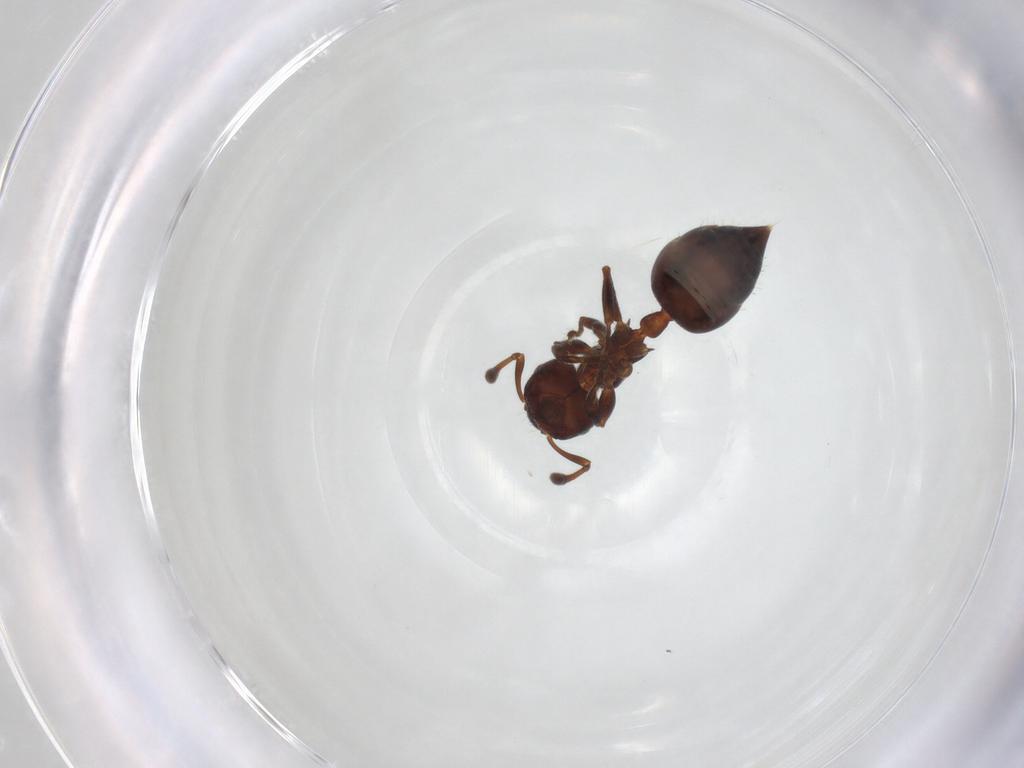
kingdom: Animalia
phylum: Arthropoda
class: Insecta
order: Hymenoptera
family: Formicidae
